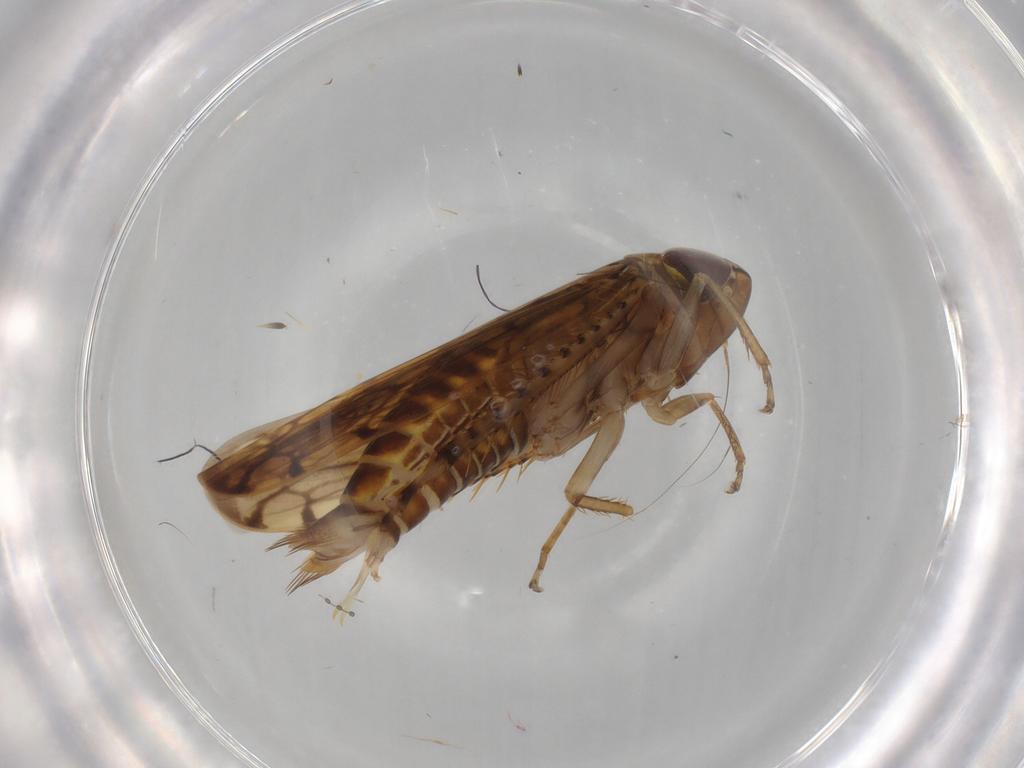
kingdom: Animalia
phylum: Arthropoda
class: Insecta
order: Hemiptera
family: Cicadellidae
